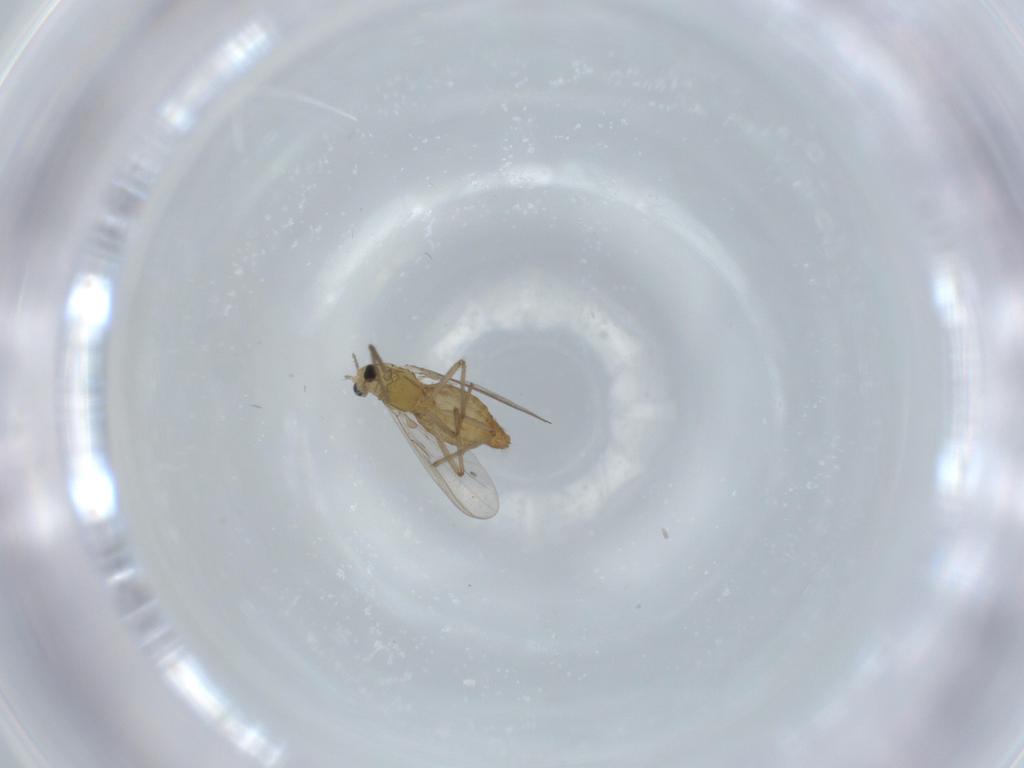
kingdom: Animalia
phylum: Arthropoda
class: Insecta
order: Diptera
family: Chironomidae
